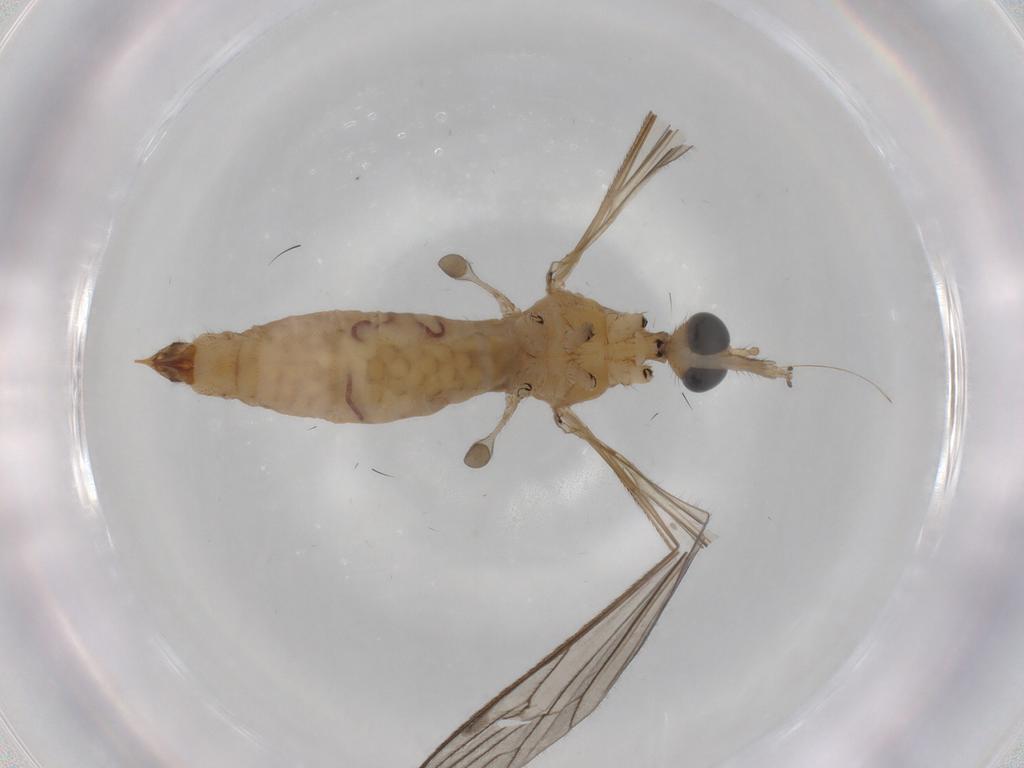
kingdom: Animalia
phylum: Arthropoda
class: Insecta
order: Diptera
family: Limoniidae
